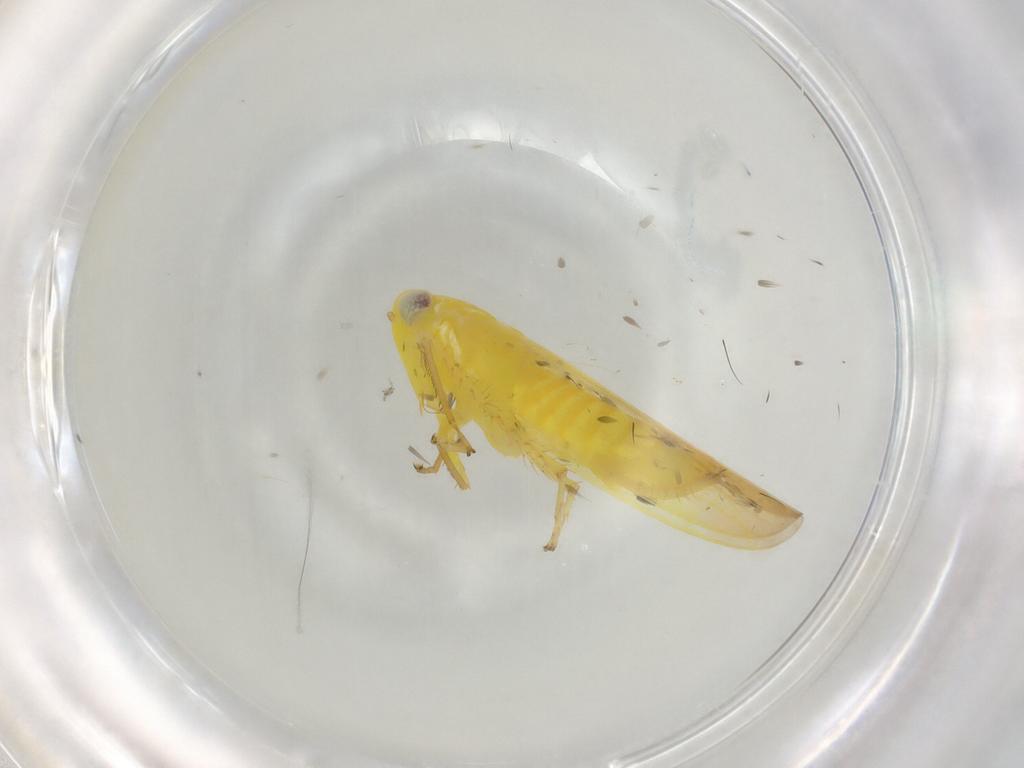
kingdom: Animalia
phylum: Arthropoda
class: Insecta
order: Hemiptera
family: Cicadellidae
